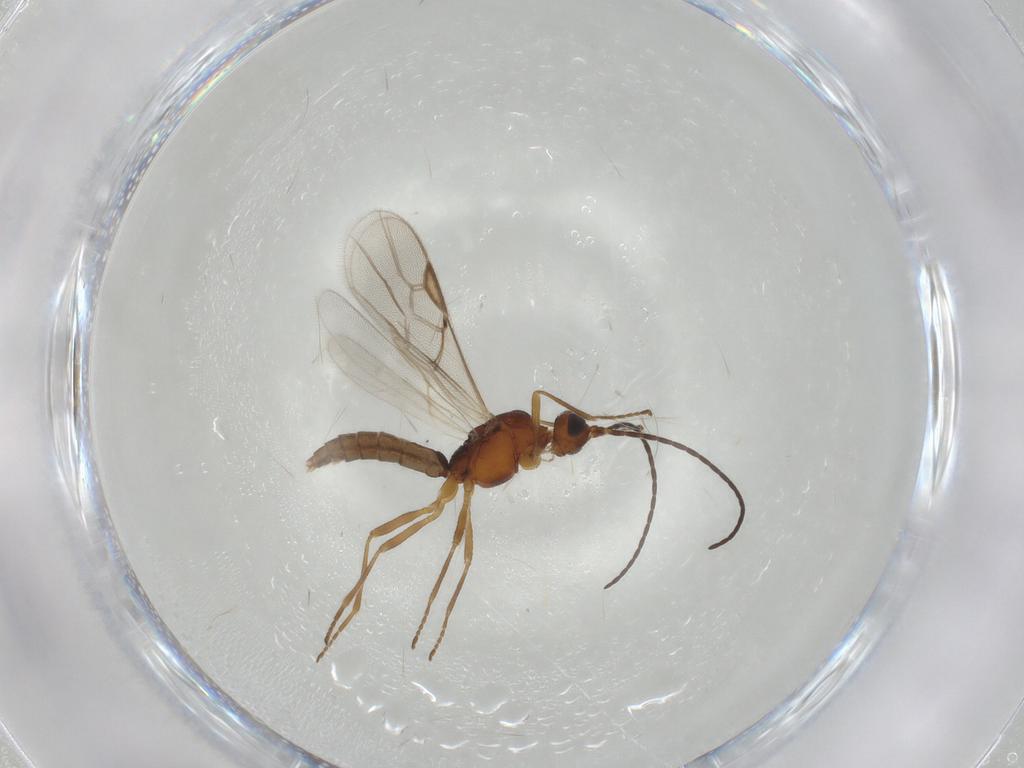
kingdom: Animalia
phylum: Arthropoda
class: Insecta
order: Hymenoptera
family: Braconidae
